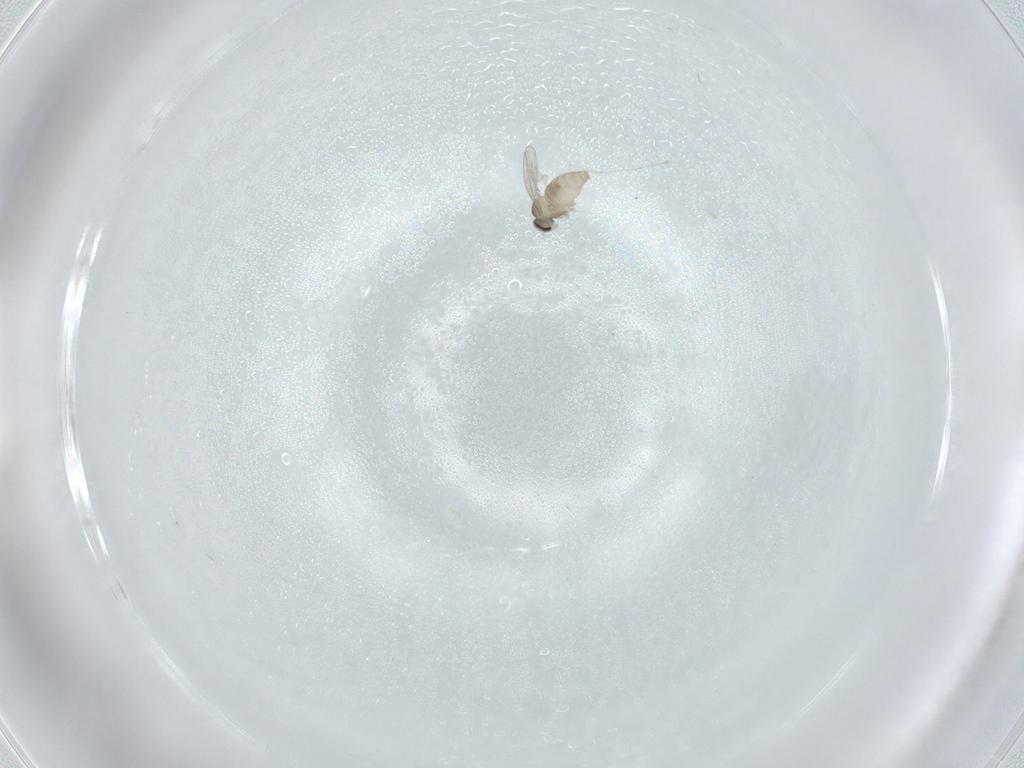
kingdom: Animalia
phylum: Arthropoda
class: Insecta
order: Diptera
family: Cecidomyiidae
